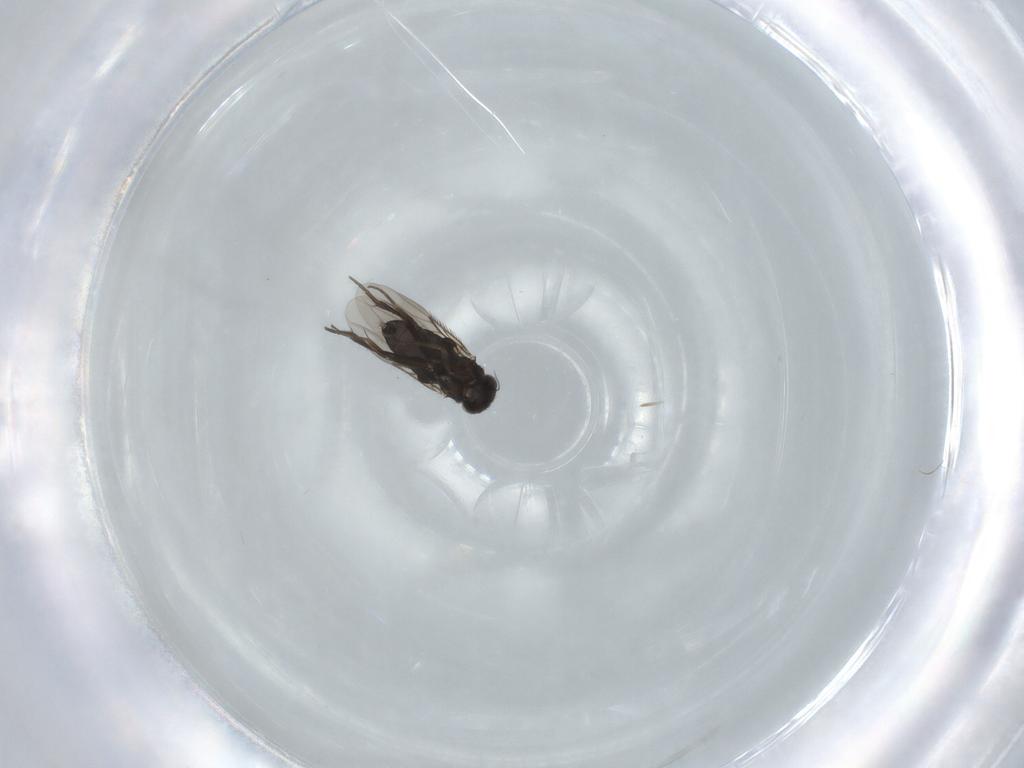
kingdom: Animalia
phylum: Arthropoda
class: Insecta
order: Diptera
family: Phoridae
